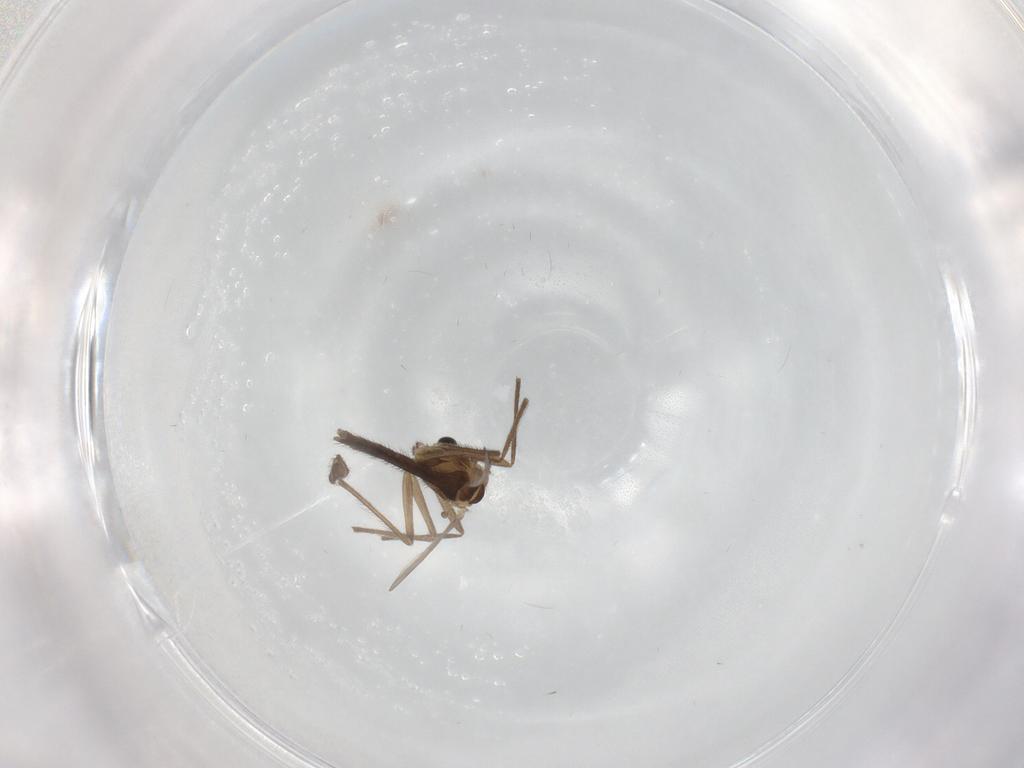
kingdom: Animalia
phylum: Arthropoda
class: Insecta
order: Diptera
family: Chironomidae
